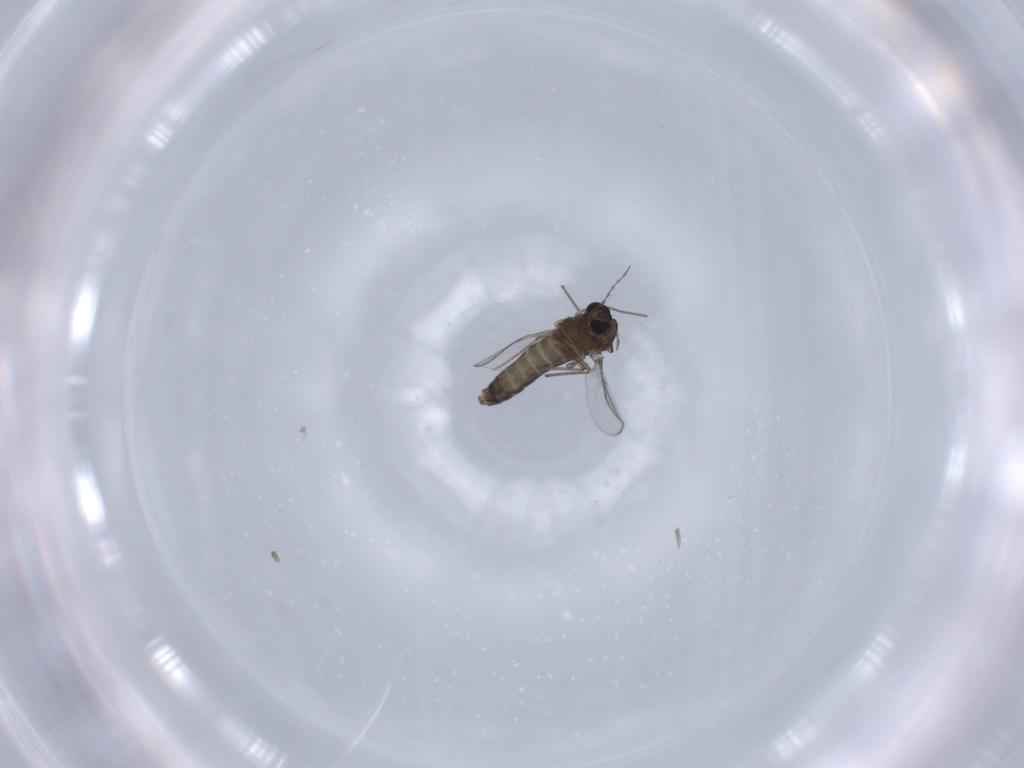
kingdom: Animalia
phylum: Arthropoda
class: Insecta
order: Diptera
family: Chironomidae
